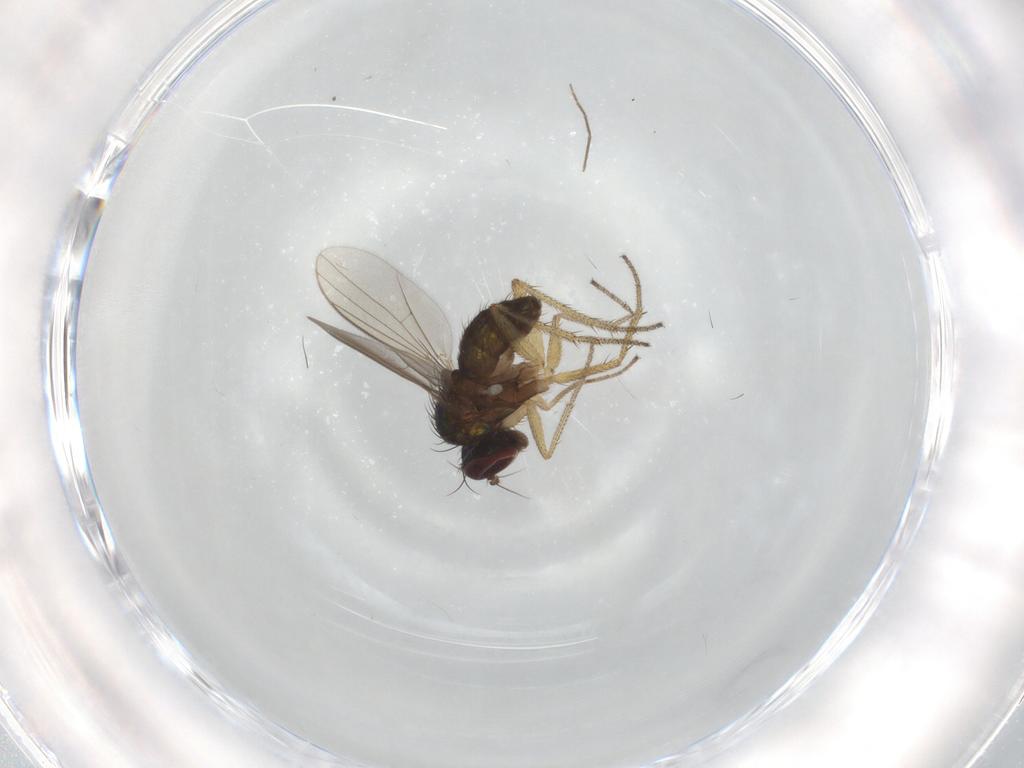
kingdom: Animalia
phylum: Arthropoda
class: Insecta
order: Diptera
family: Dolichopodidae
